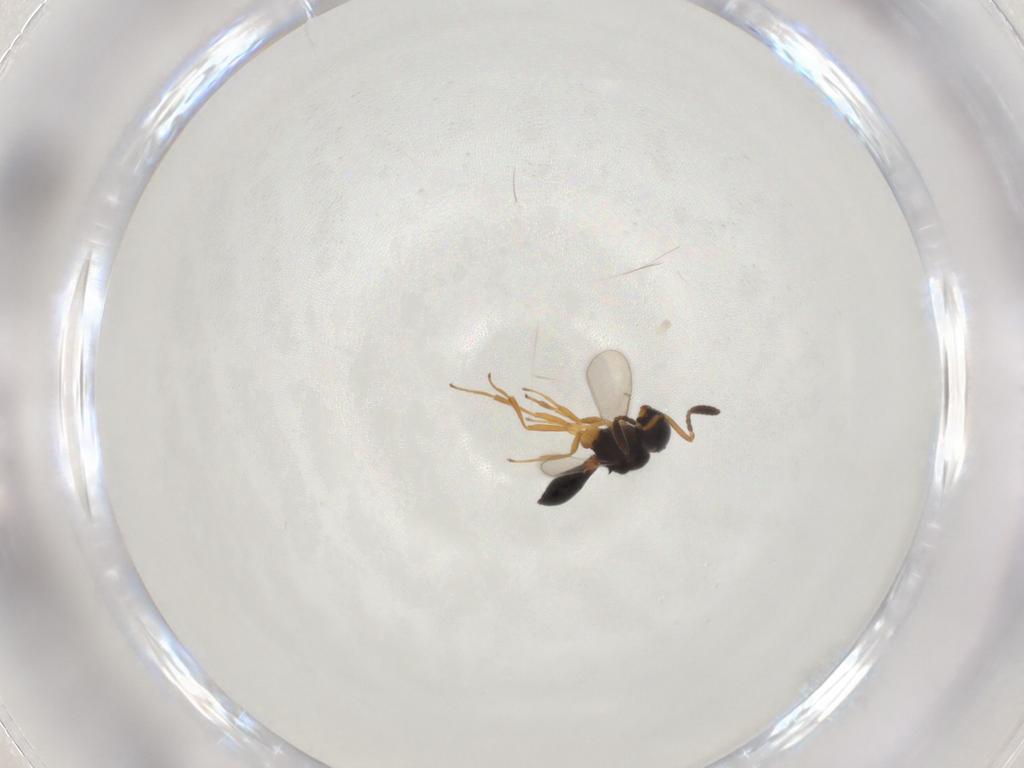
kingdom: Animalia
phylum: Arthropoda
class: Insecta
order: Hymenoptera
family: Scelionidae
